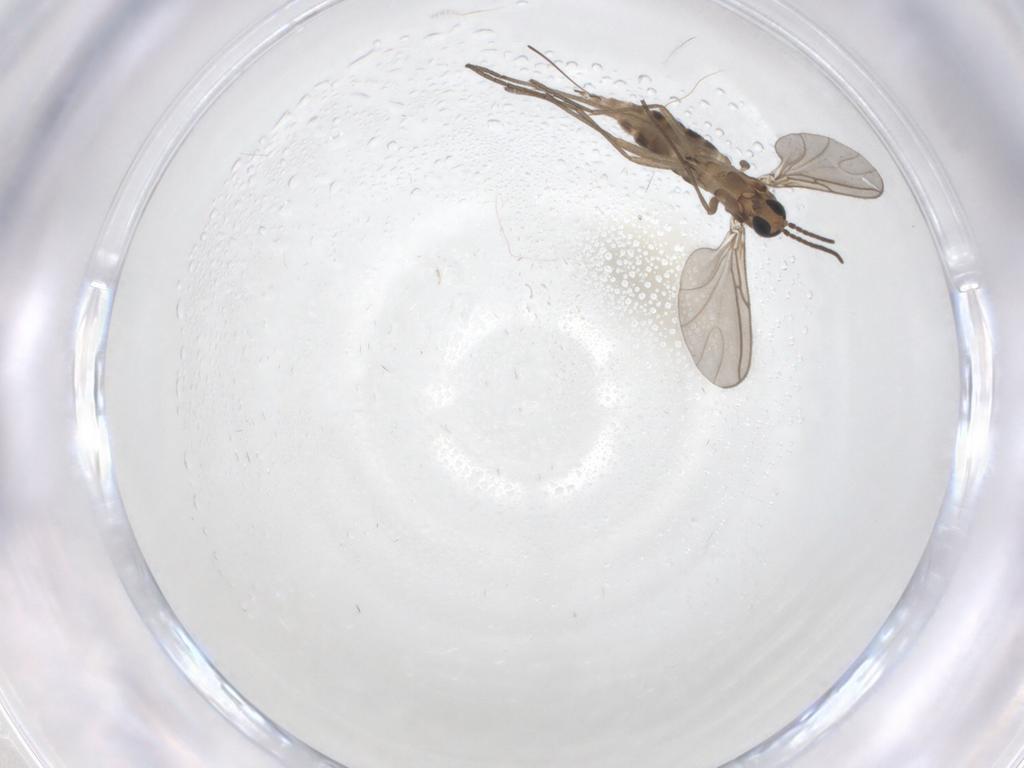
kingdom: Animalia
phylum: Arthropoda
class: Insecta
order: Diptera
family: Sciaridae
